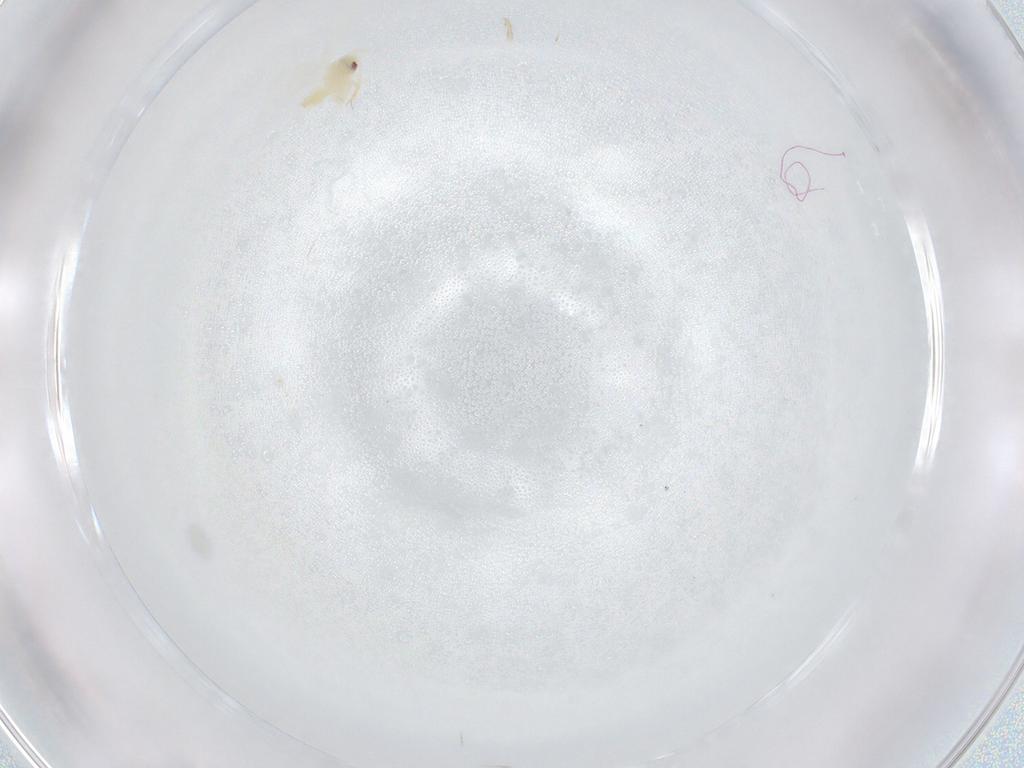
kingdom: Animalia
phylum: Arthropoda
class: Insecta
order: Hemiptera
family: Aleyrodidae
